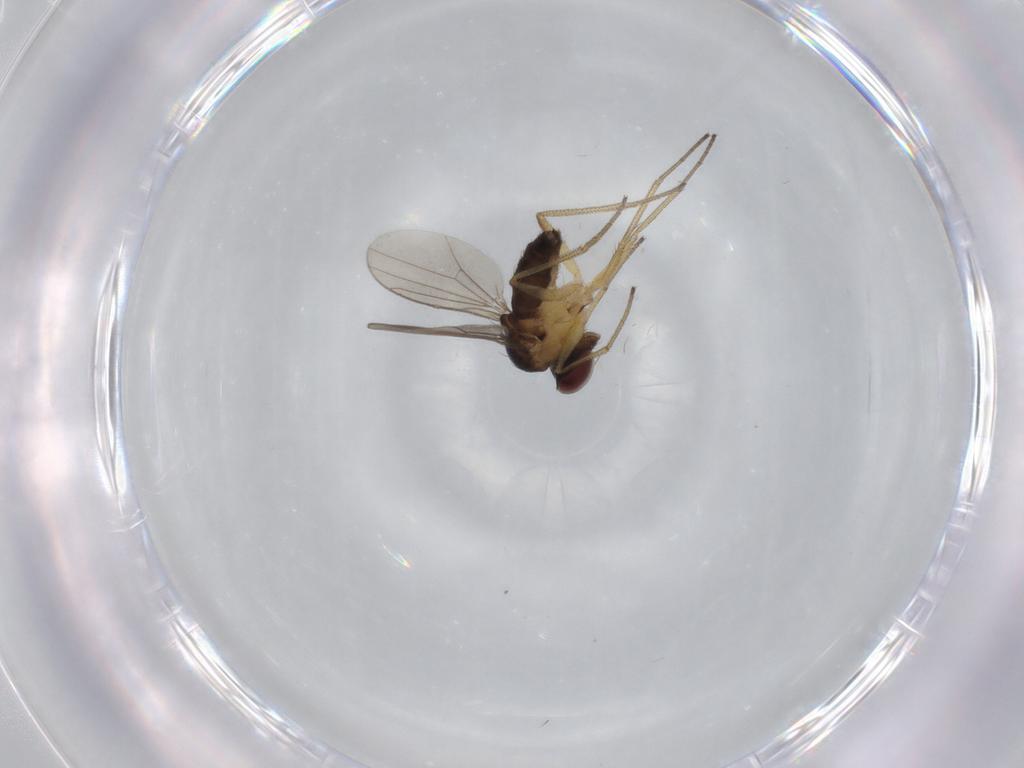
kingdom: Animalia
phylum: Arthropoda
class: Insecta
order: Diptera
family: Dolichopodidae
